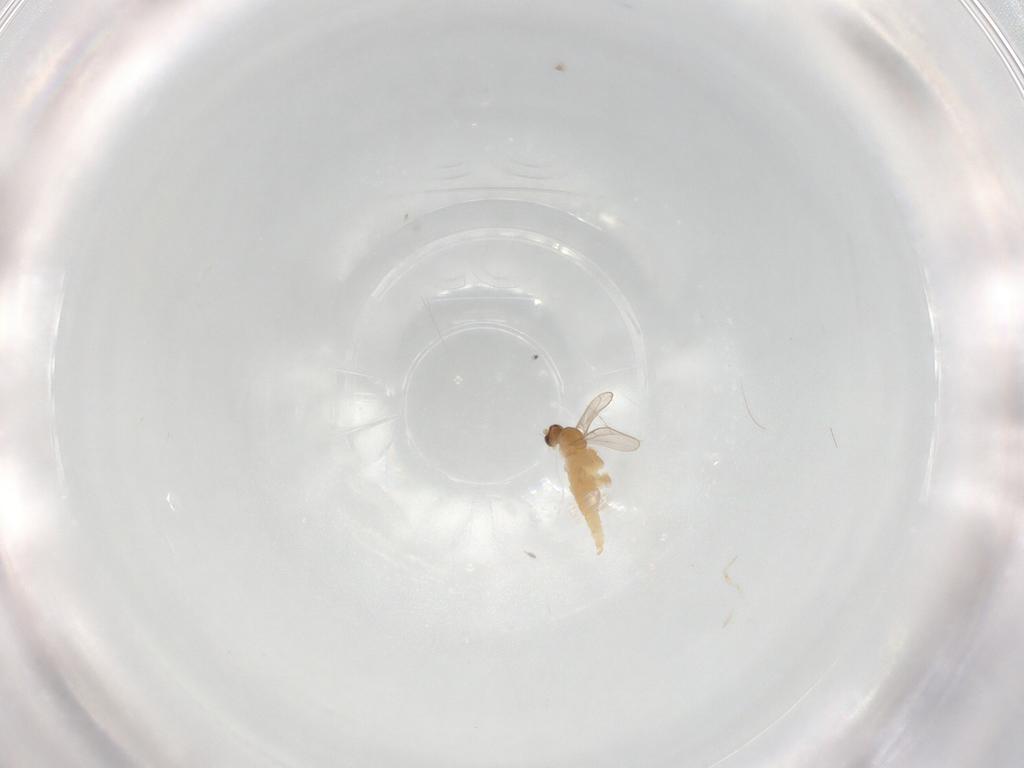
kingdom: Animalia
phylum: Arthropoda
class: Insecta
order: Diptera
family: Cecidomyiidae
